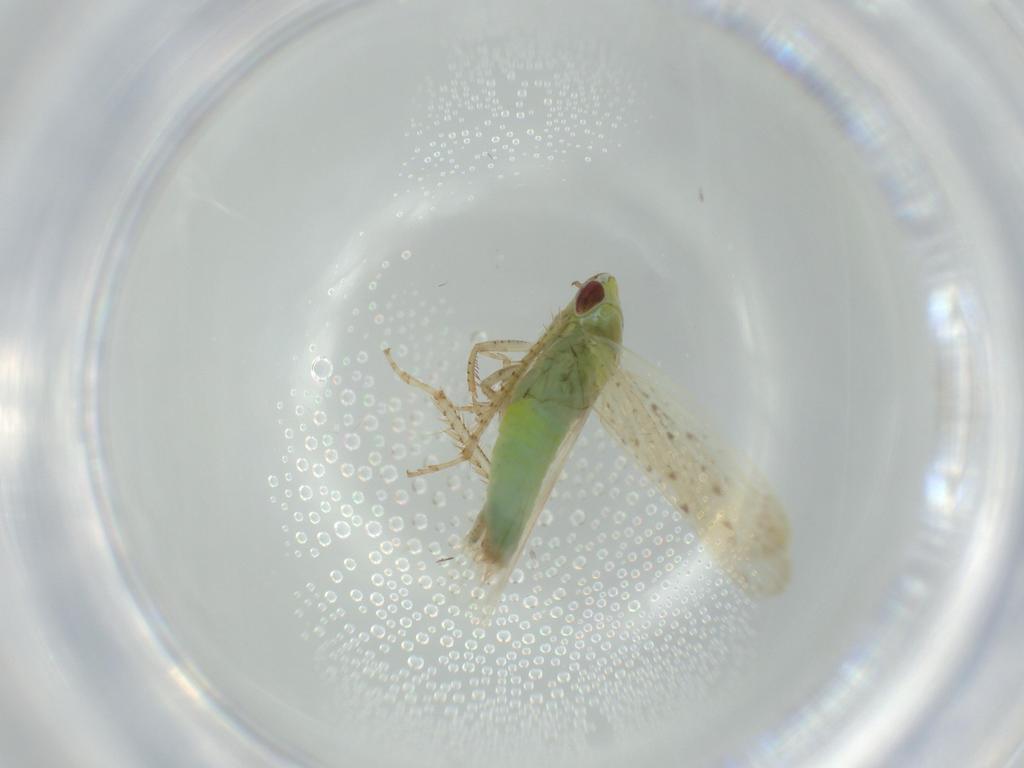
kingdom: Animalia
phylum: Arthropoda
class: Insecta
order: Hemiptera
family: Cicadellidae
